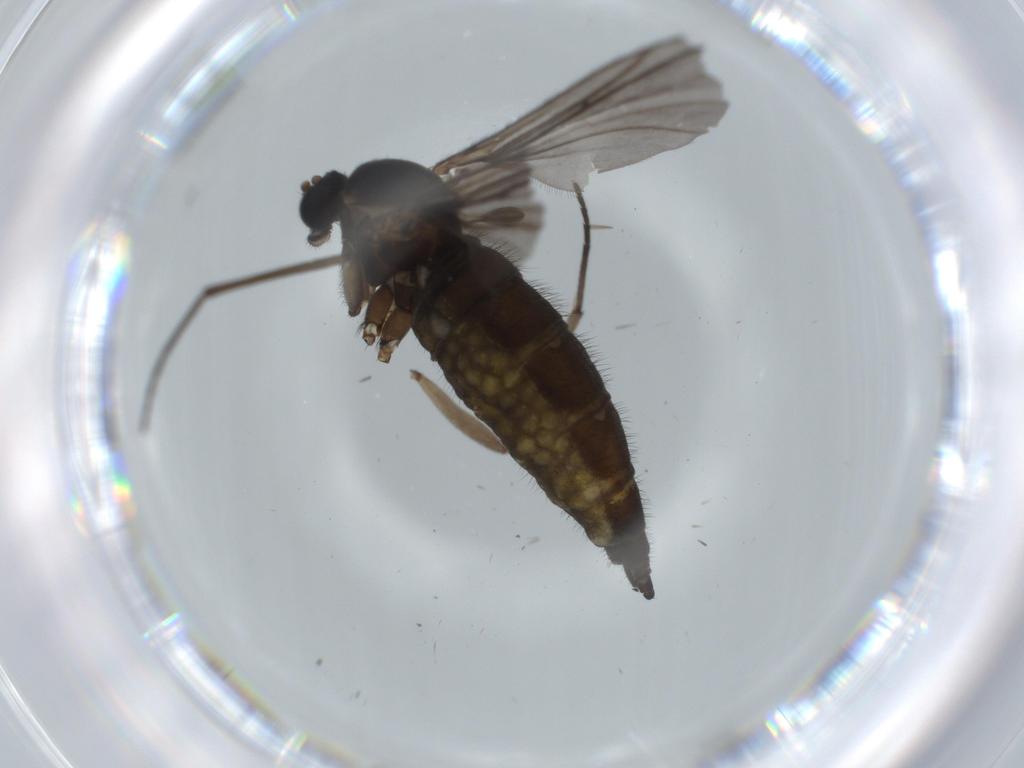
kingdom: Animalia
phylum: Arthropoda
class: Insecta
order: Diptera
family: Sciaridae
